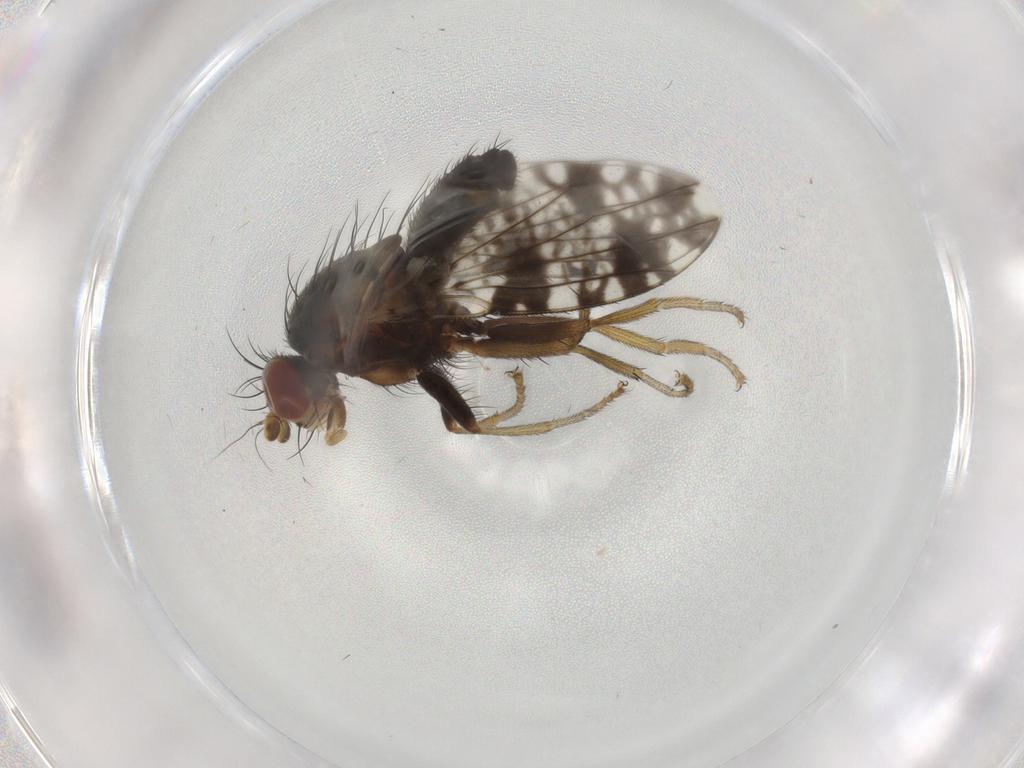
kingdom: Animalia
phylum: Arthropoda
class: Insecta
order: Diptera
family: Tephritidae
